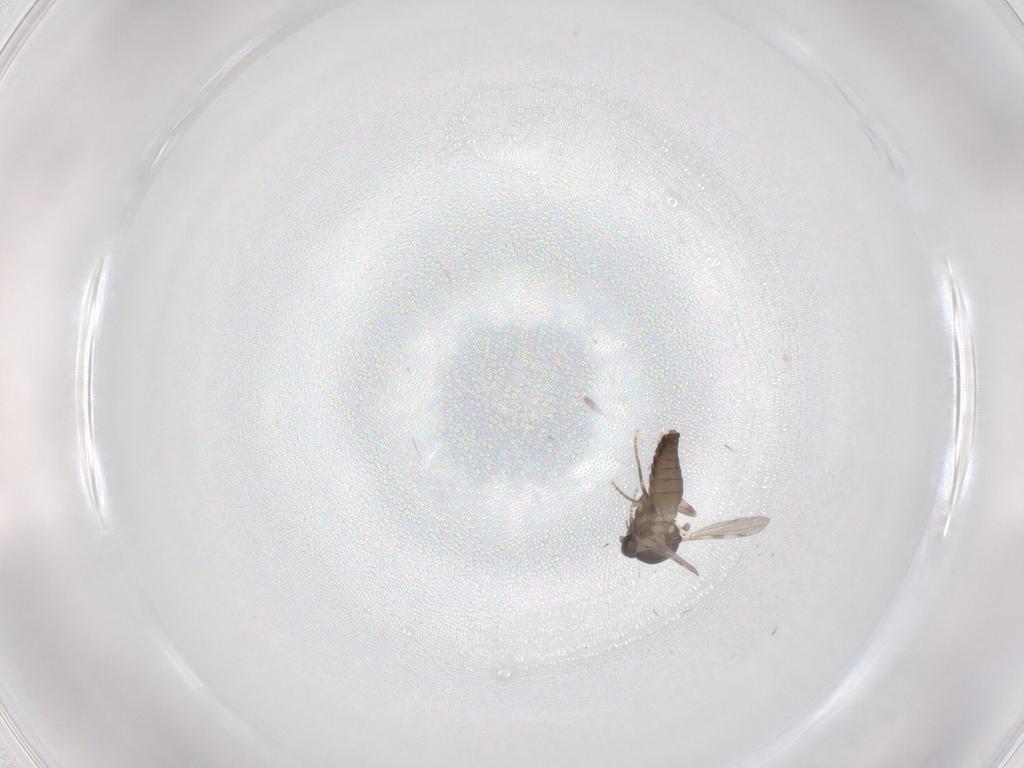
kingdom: Animalia
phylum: Arthropoda
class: Insecta
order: Diptera
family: Ceratopogonidae
